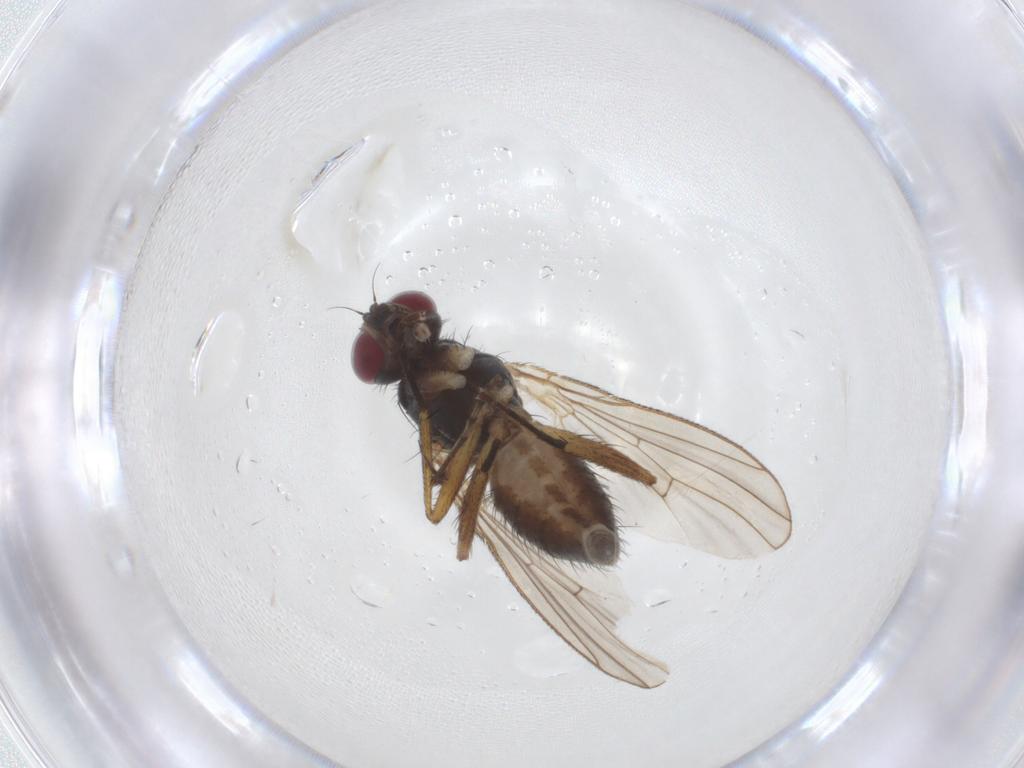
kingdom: Animalia
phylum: Arthropoda
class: Insecta
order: Diptera
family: Muscidae
